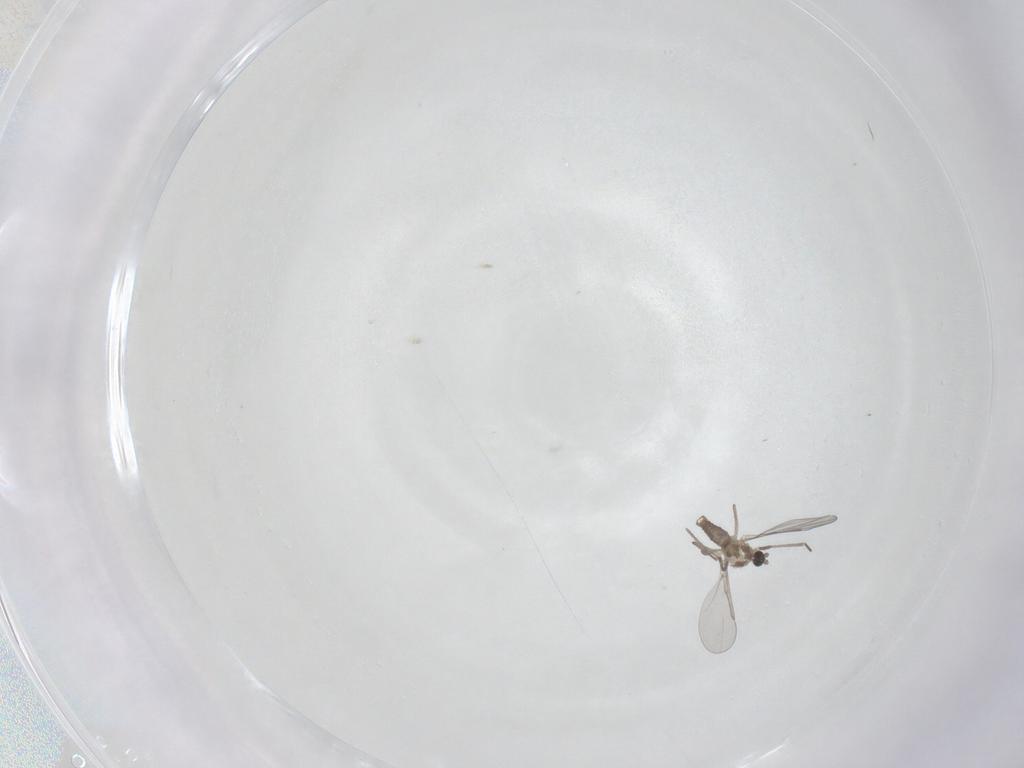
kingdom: Animalia
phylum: Arthropoda
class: Insecta
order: Diptera
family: Cecidomyiidae
